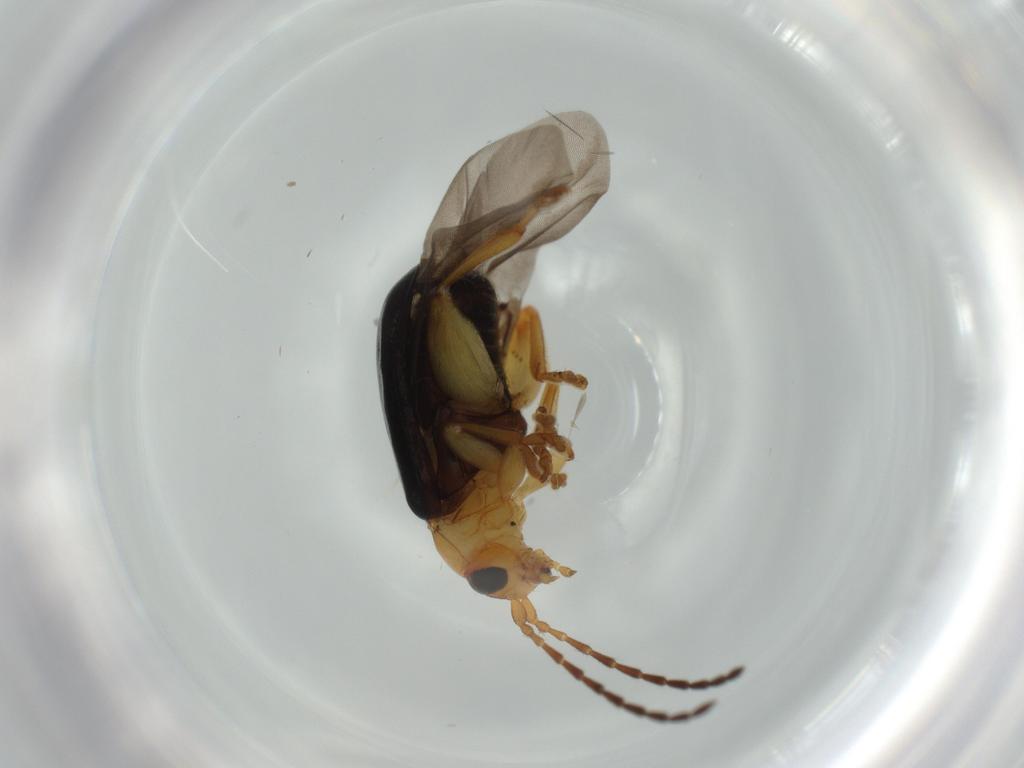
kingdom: Animalia
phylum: Arthropoda
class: Insecta
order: Coleoptera
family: Chrysomelidae
